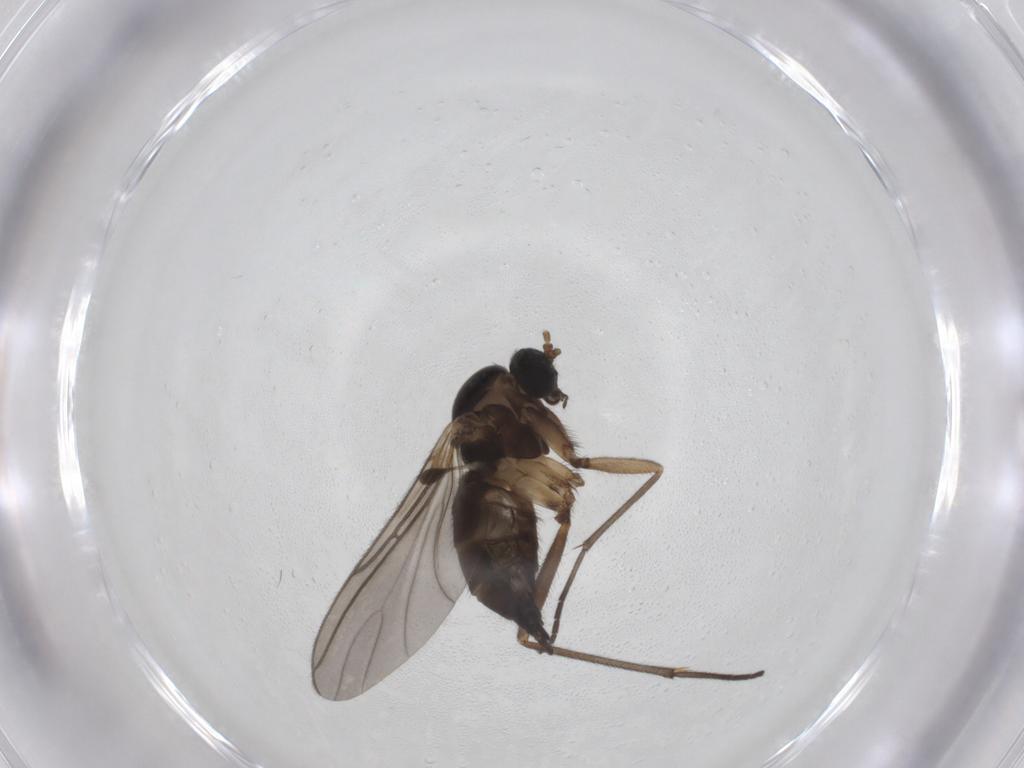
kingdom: Animalia
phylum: Arthropoda
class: Insecta
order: Diptera
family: Sciaridae
